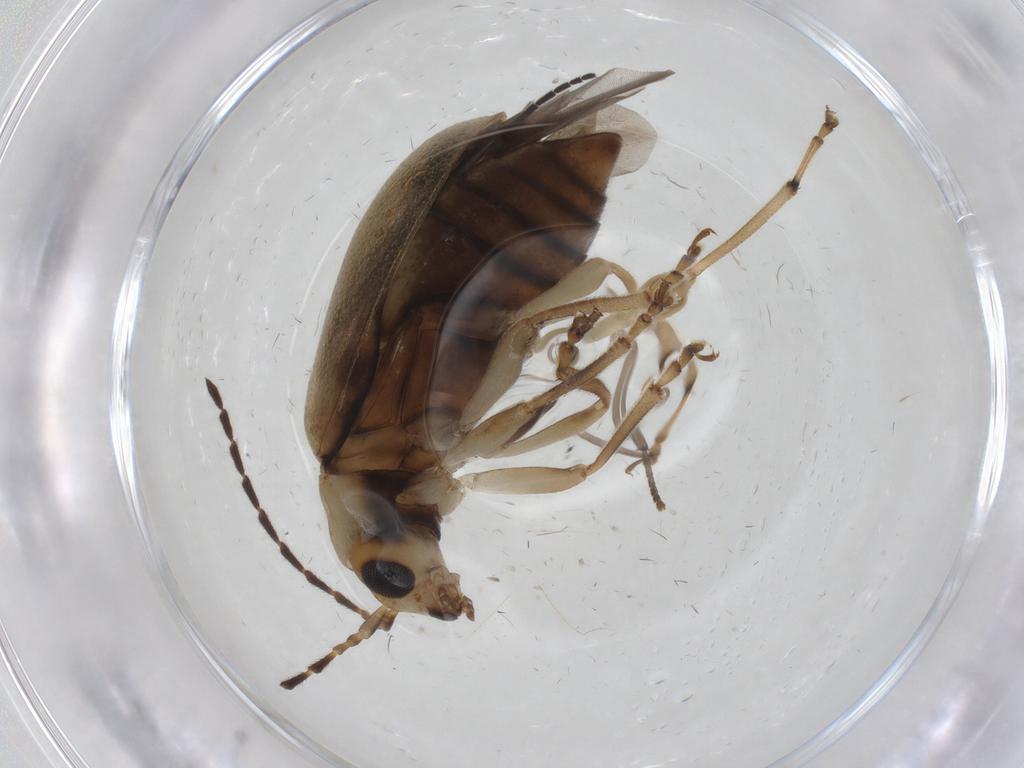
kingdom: Animalia
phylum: Arthropoda
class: Insecta
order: Coleoptera
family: Chrysomelidae
